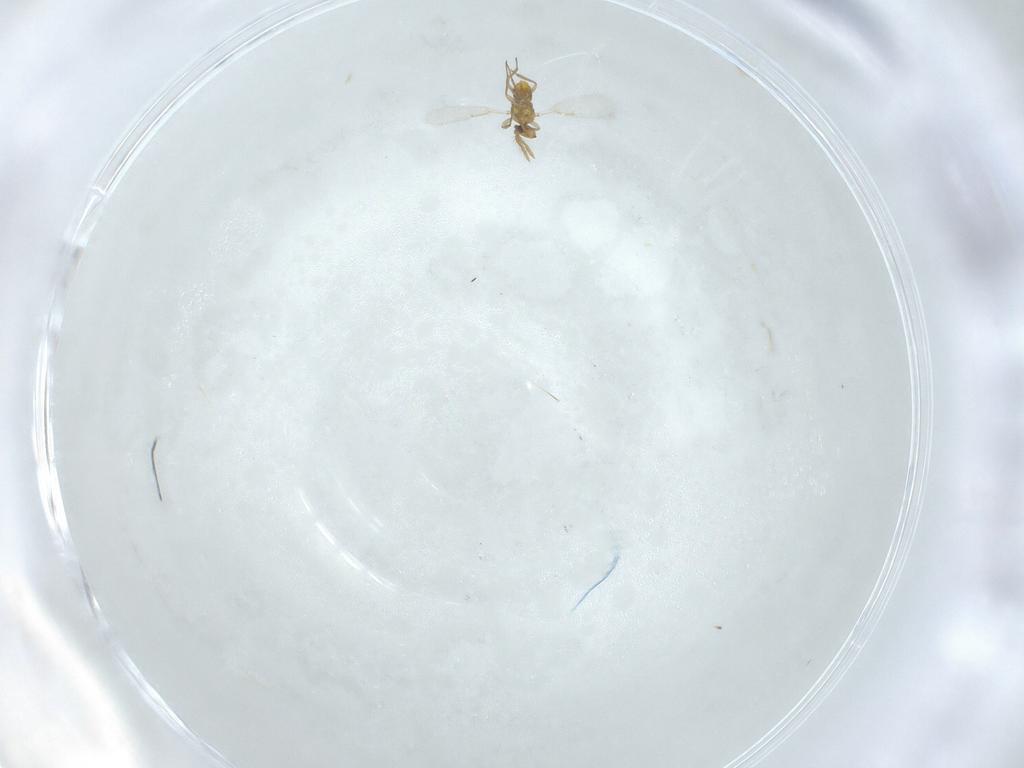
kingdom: Animalia
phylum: Arthropoda
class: Insecta
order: Hymenoptera
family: Aphelinidae
